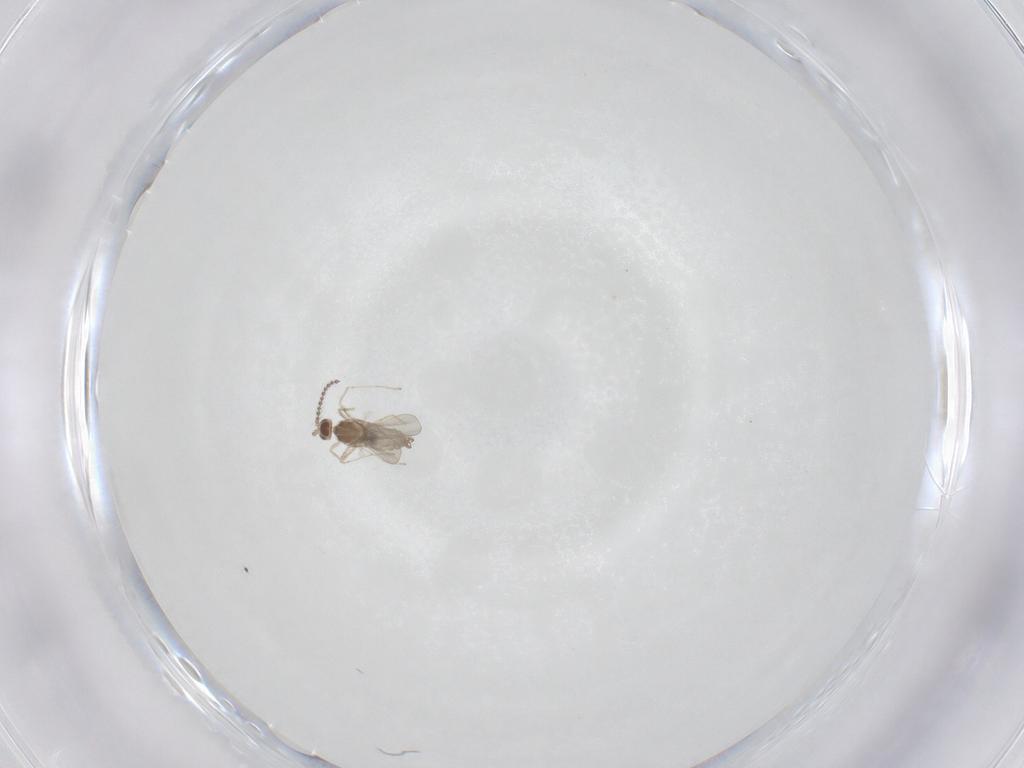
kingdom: Animalia
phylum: Arthropoda
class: Insecta
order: Diptera
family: Cecidomyiidae
